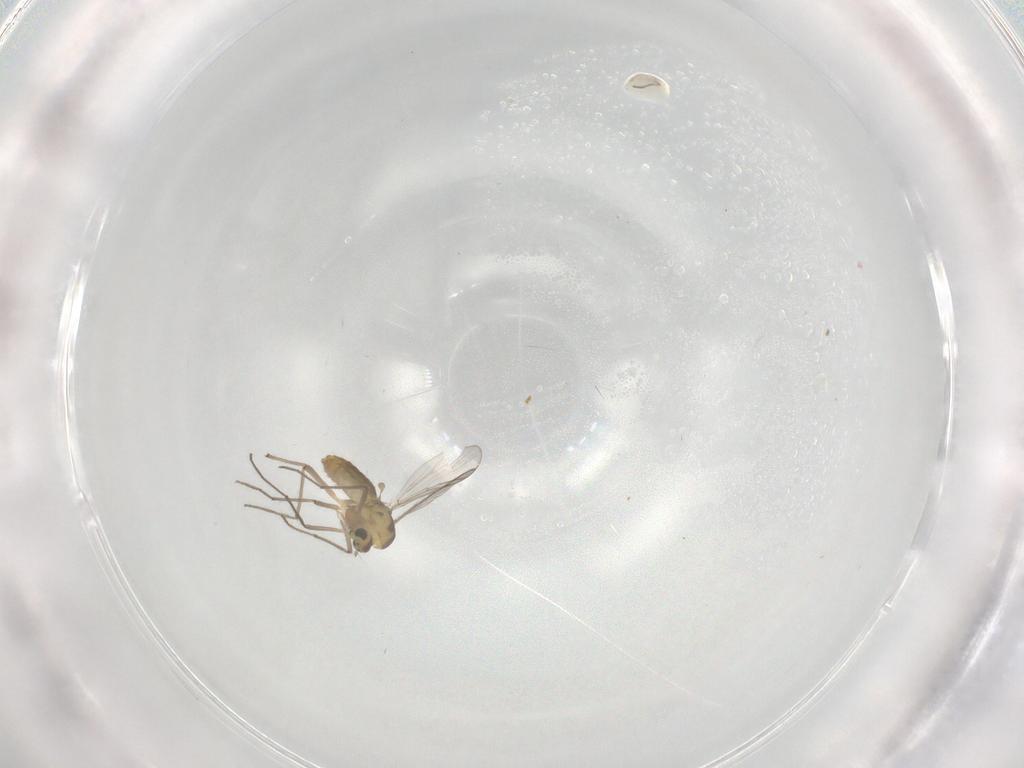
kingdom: Animalia
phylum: Arthropoda
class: Insecta
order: Diptera
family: Chironomidae
